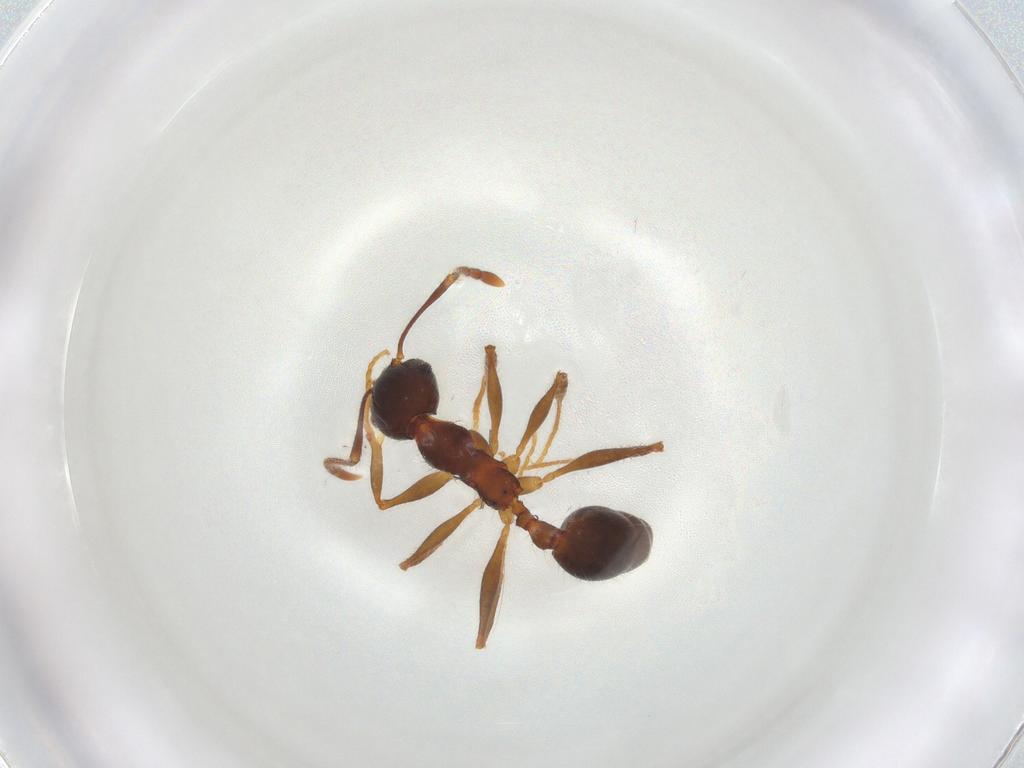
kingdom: Animalia
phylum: Arthropoda
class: Insecta
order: Hymenoptera
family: Formicidae
